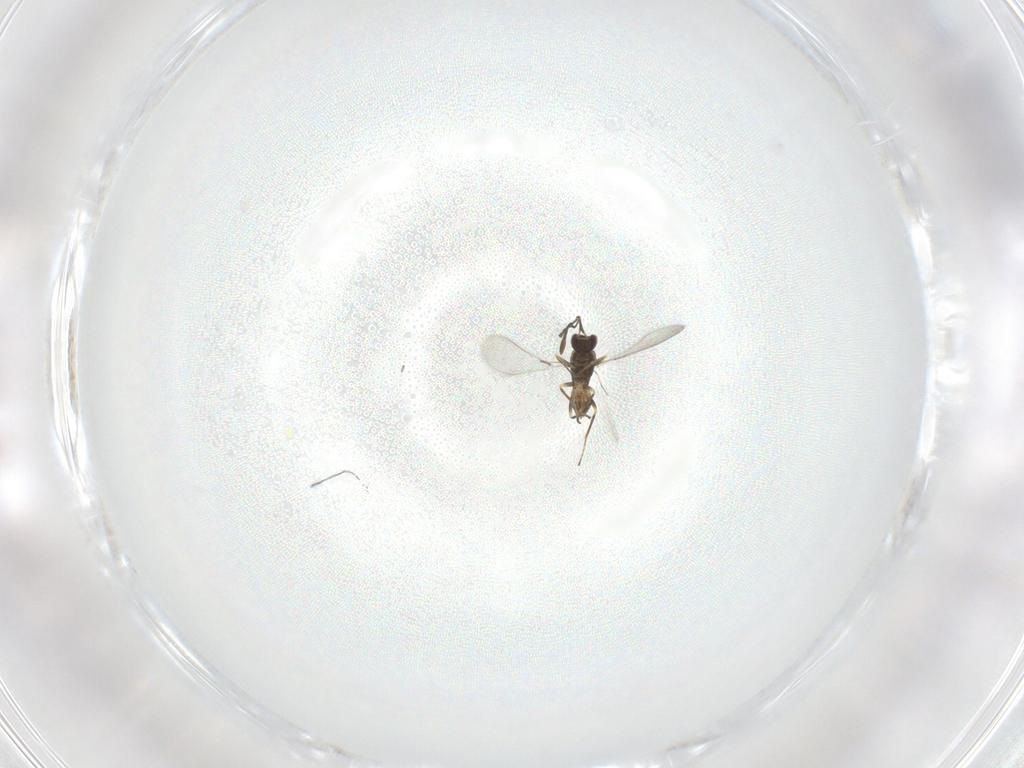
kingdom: Animalia
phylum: Arthropoda
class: Insecta
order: Hymenoptera
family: Mymaridae
